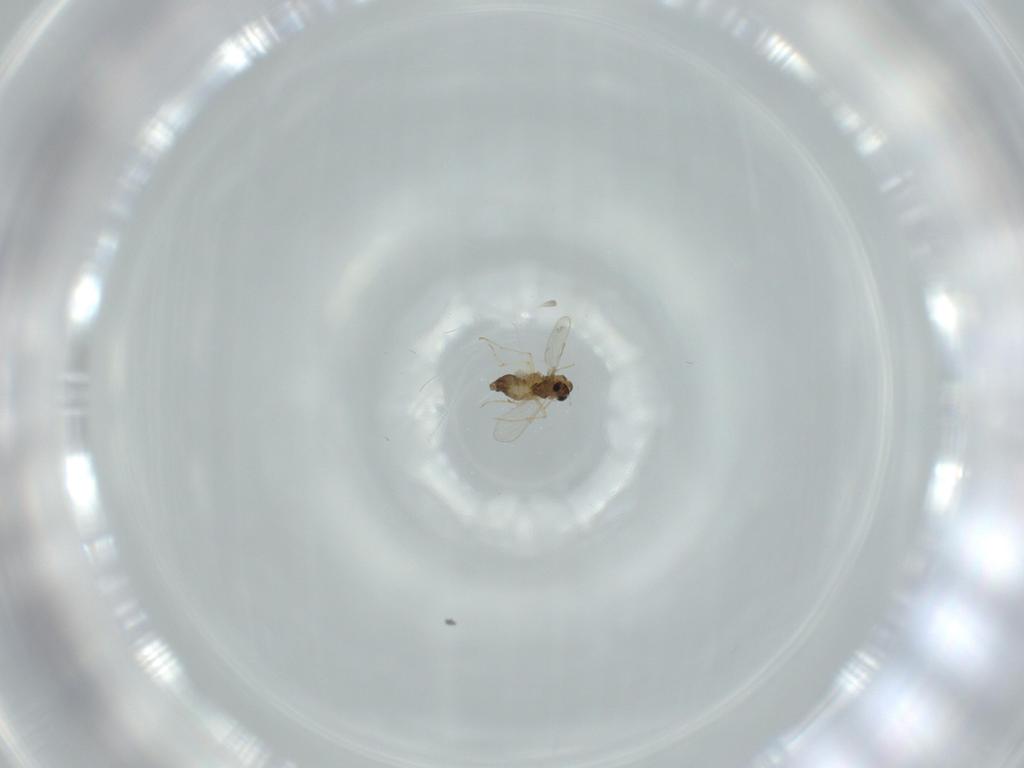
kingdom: Animalia
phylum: Arthropoda
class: Insecta
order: Diptera
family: Chironomidae
